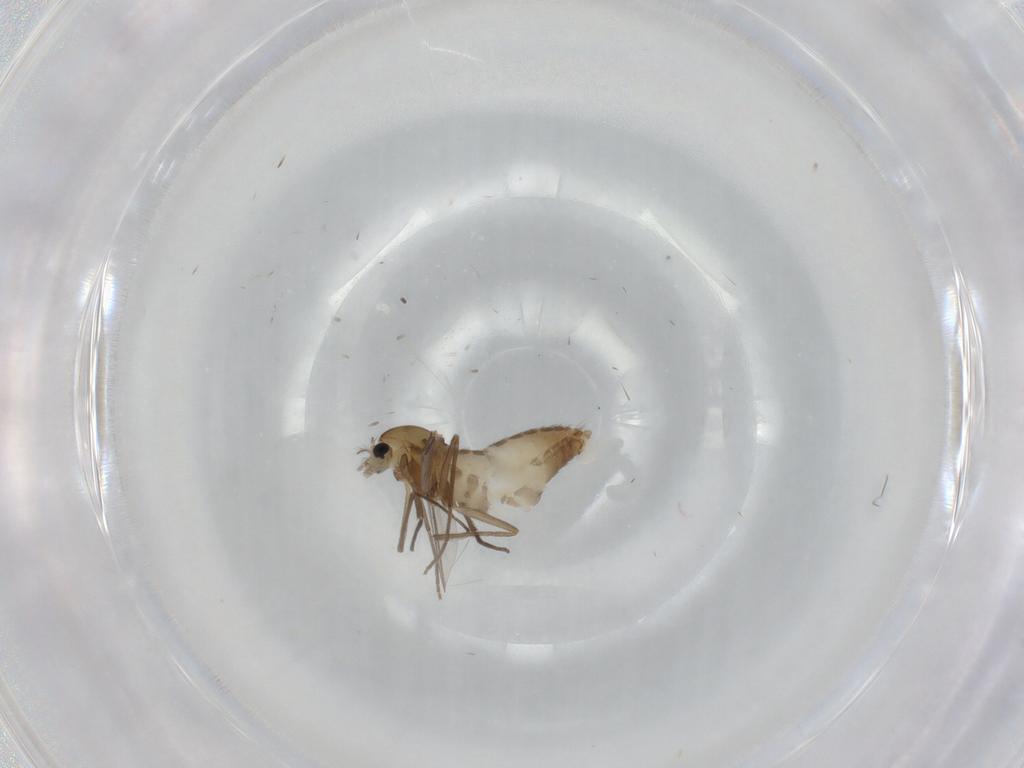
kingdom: Animalia
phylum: Arthropoda
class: Insecta
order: Diptera
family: Chironomidae
